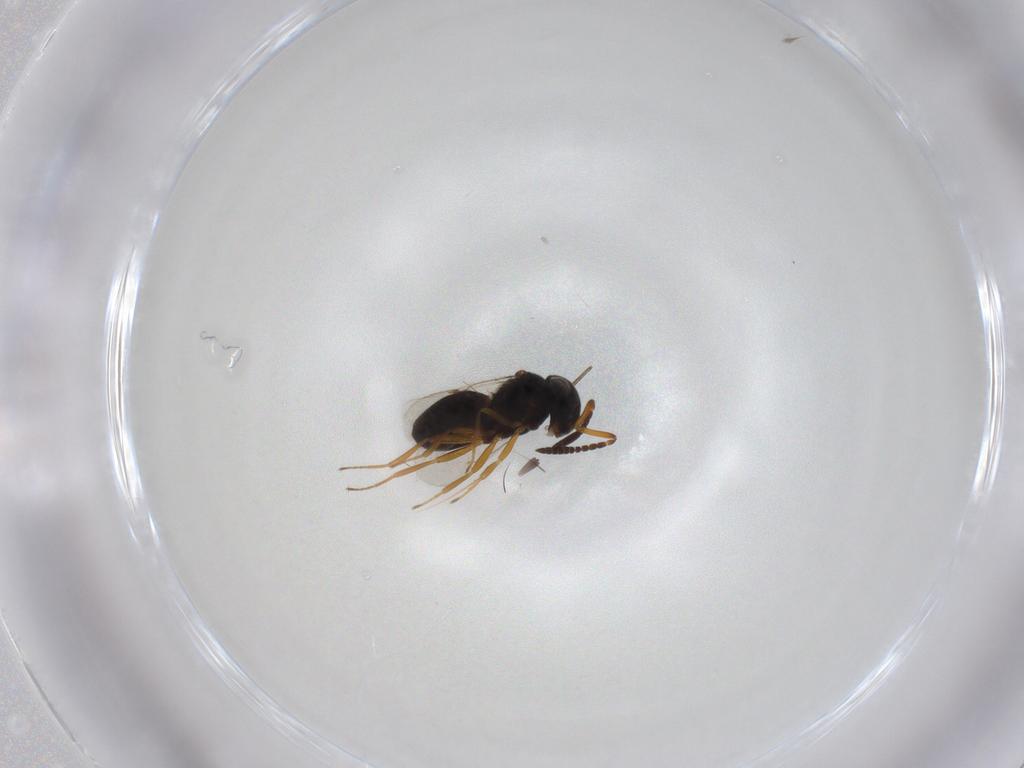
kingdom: Animalia
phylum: Arthropoda
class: Insecta
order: Hymenoptera
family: Scelionidae
